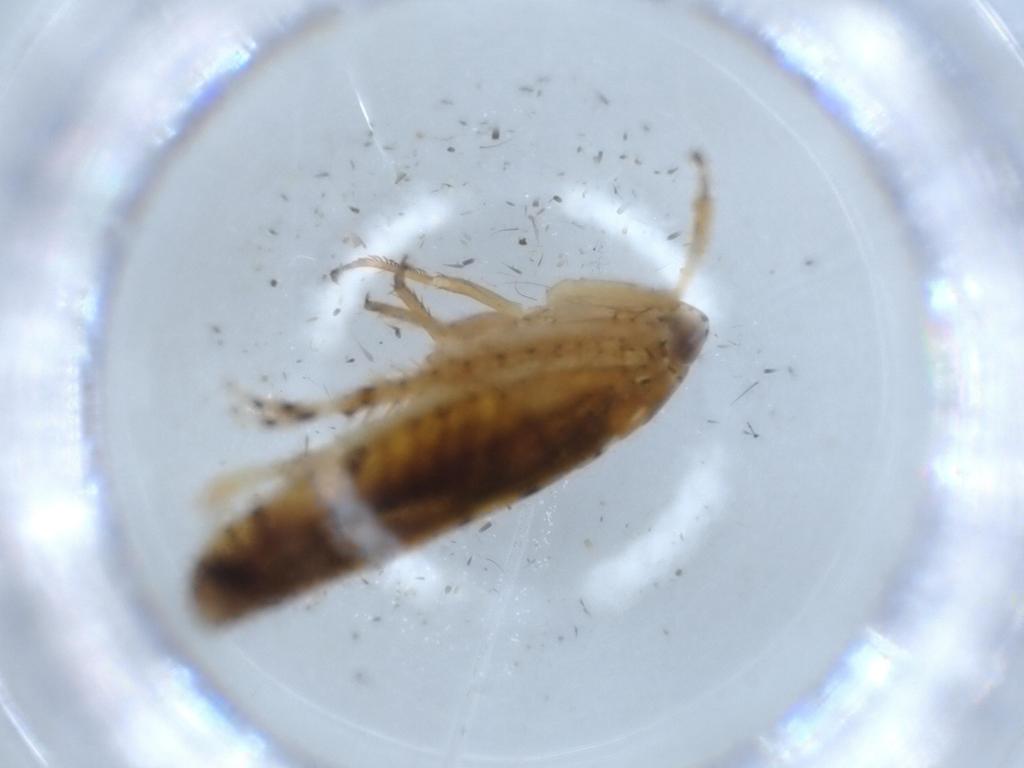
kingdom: Animalia
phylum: Arthropoda
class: Insecta
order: Hemiptera
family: Cicadellidae
